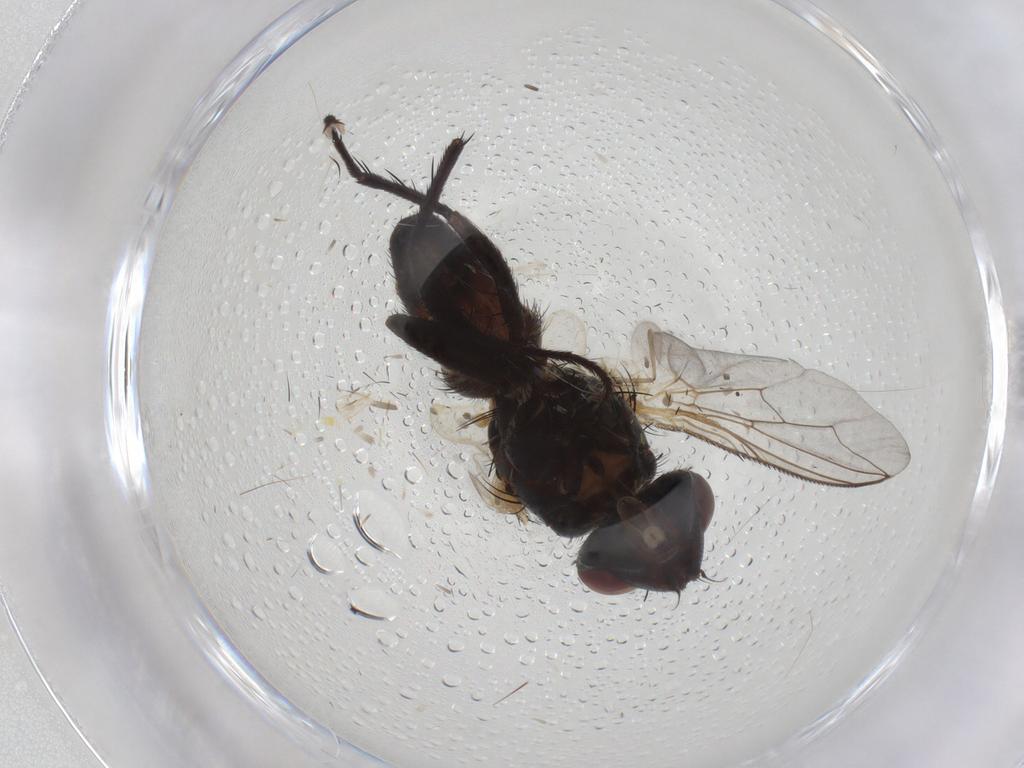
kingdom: Animalia
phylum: Arthropoda
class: Insecta
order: Diptera
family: Sarcophagidae
